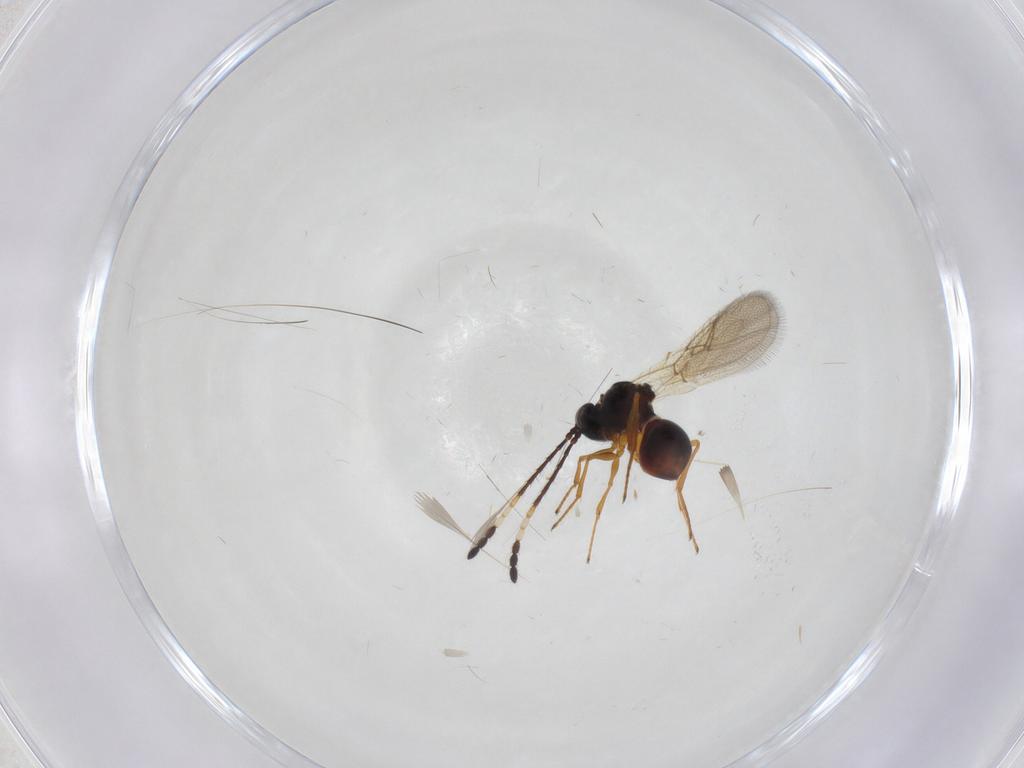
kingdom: Animalia
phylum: Arthropoda
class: Insecta
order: Hymenoptera
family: Figitidae
